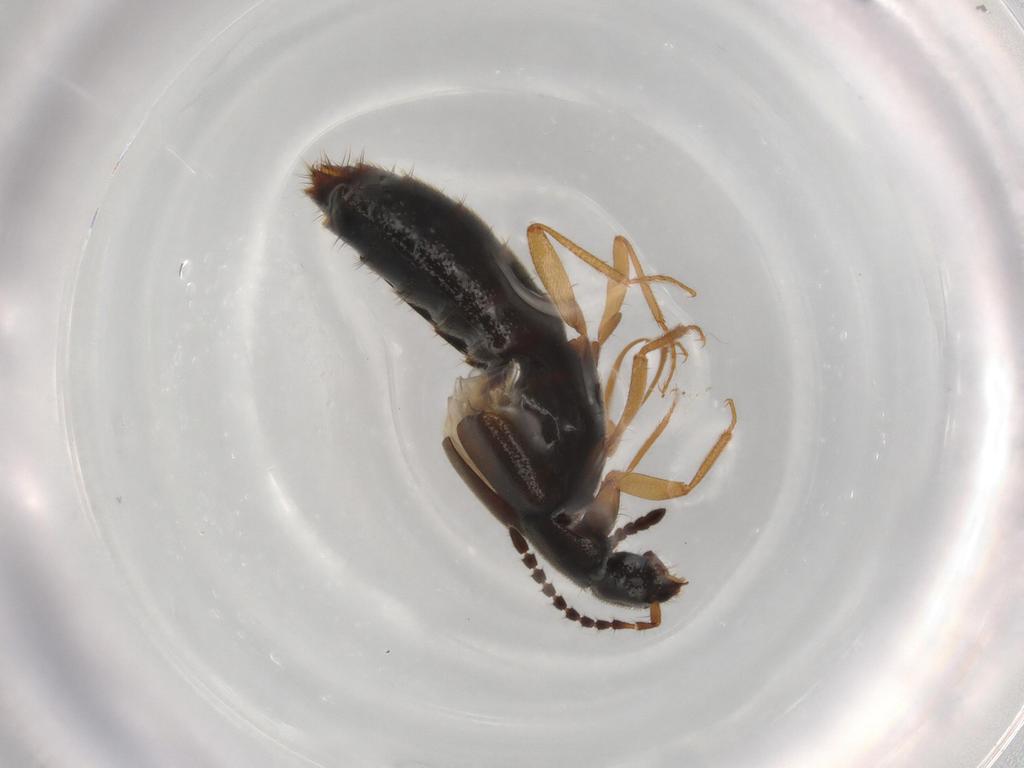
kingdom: Animalia
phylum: Arthropoda
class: Insecta
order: Coleoptera
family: Staphylinidae
